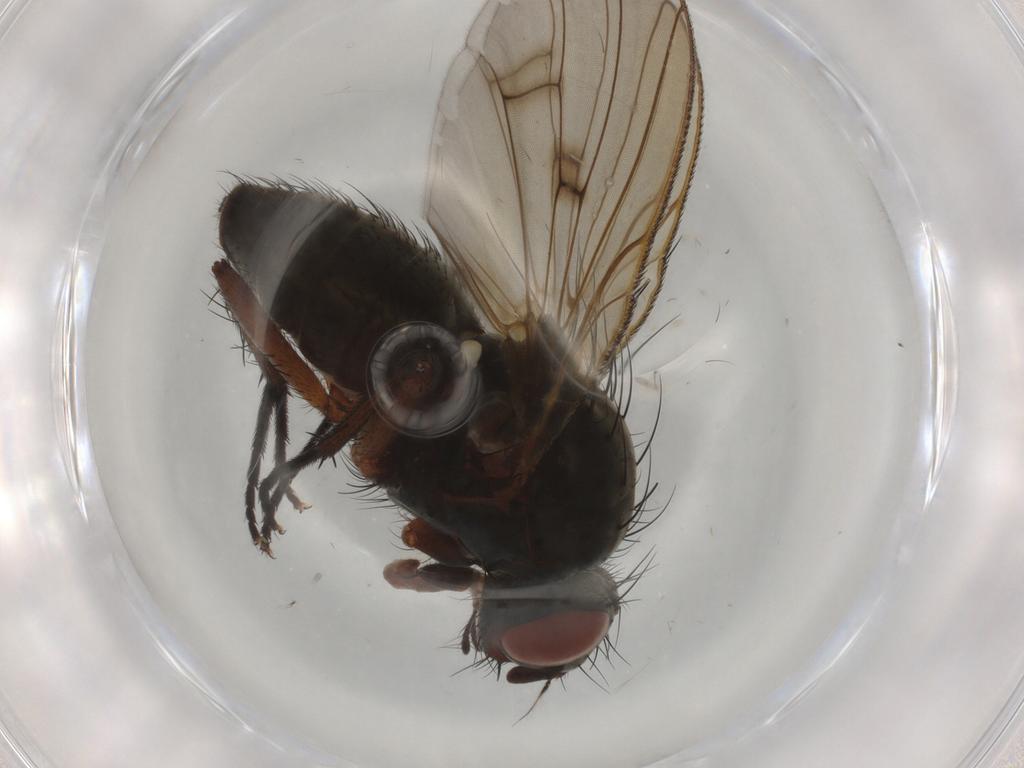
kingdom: Animalia
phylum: Arthropoda
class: Insecta
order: Diptera
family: Anthomyiidae
